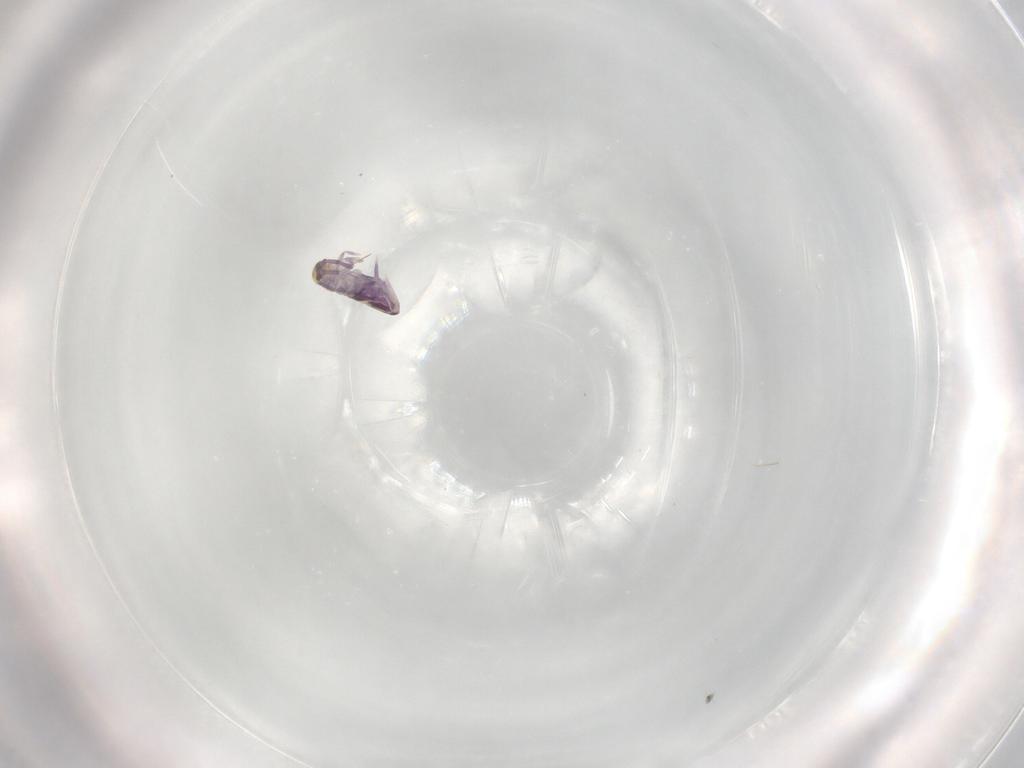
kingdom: Animalia
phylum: Arthropoda
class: Collembola
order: Entomobryomorpha
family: Entomobryidae
